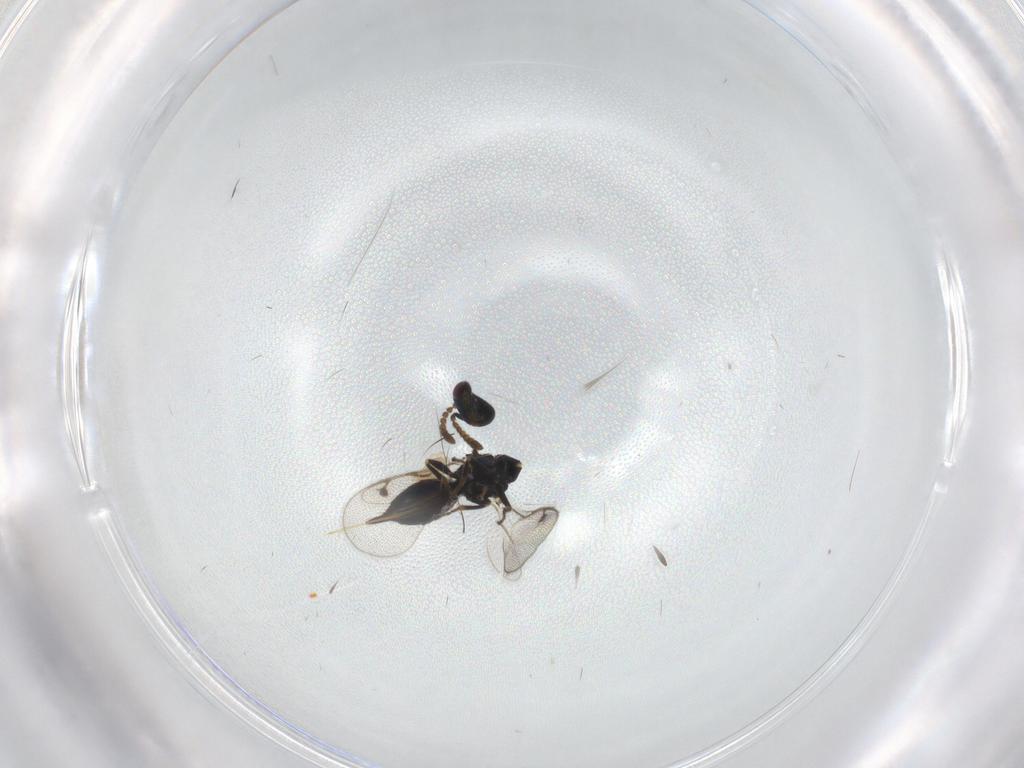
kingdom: Animalia
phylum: Arthropoda
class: Insecta
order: Hymenoptera
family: Pirenidae
